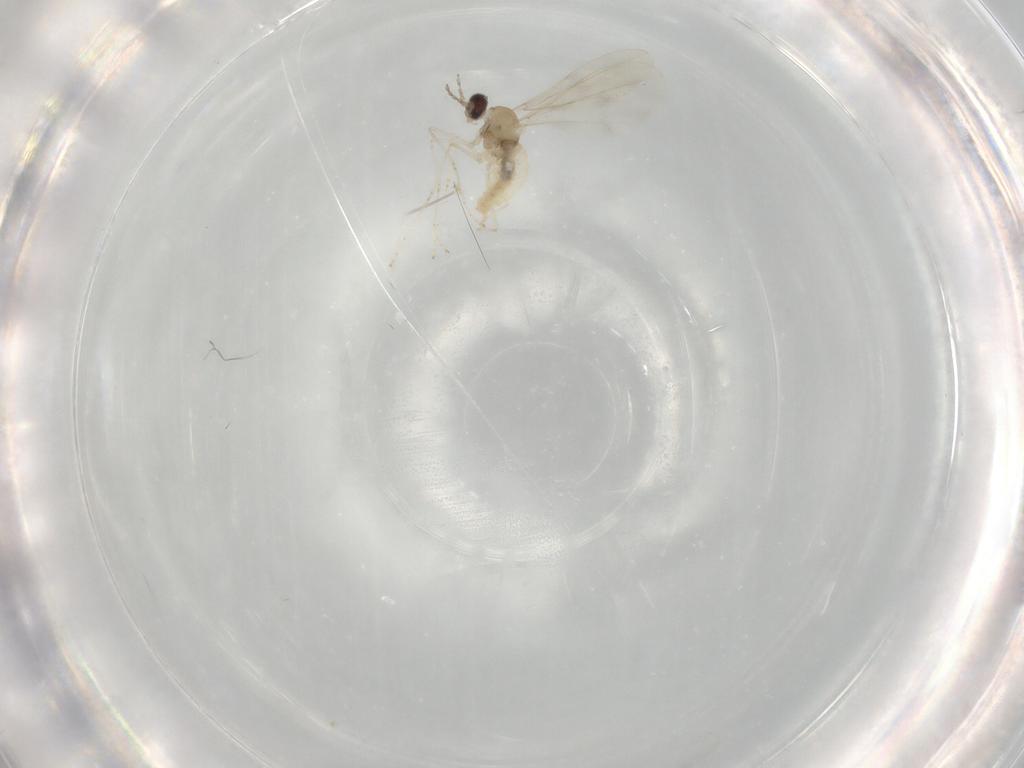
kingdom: Animalia
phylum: Arthropoda
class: Insecta
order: Diptera
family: Cecidomyiidae
